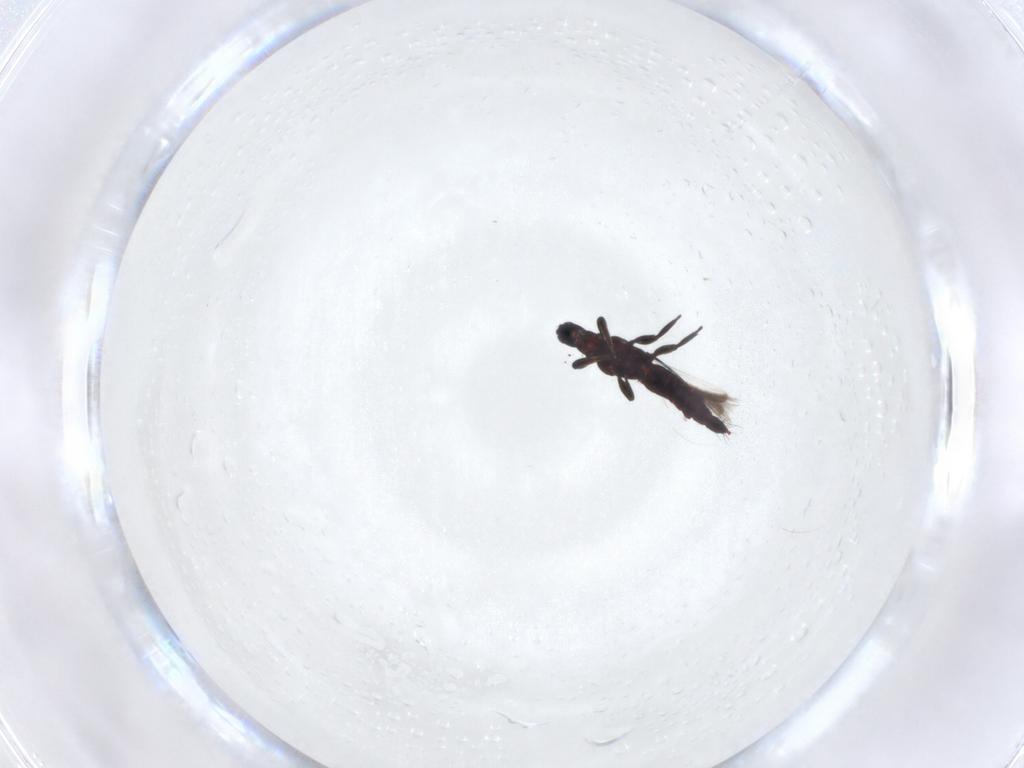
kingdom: Animalia
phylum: Arthropoda
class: Insecta
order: Thysanoptera
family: Aeolothripidae
